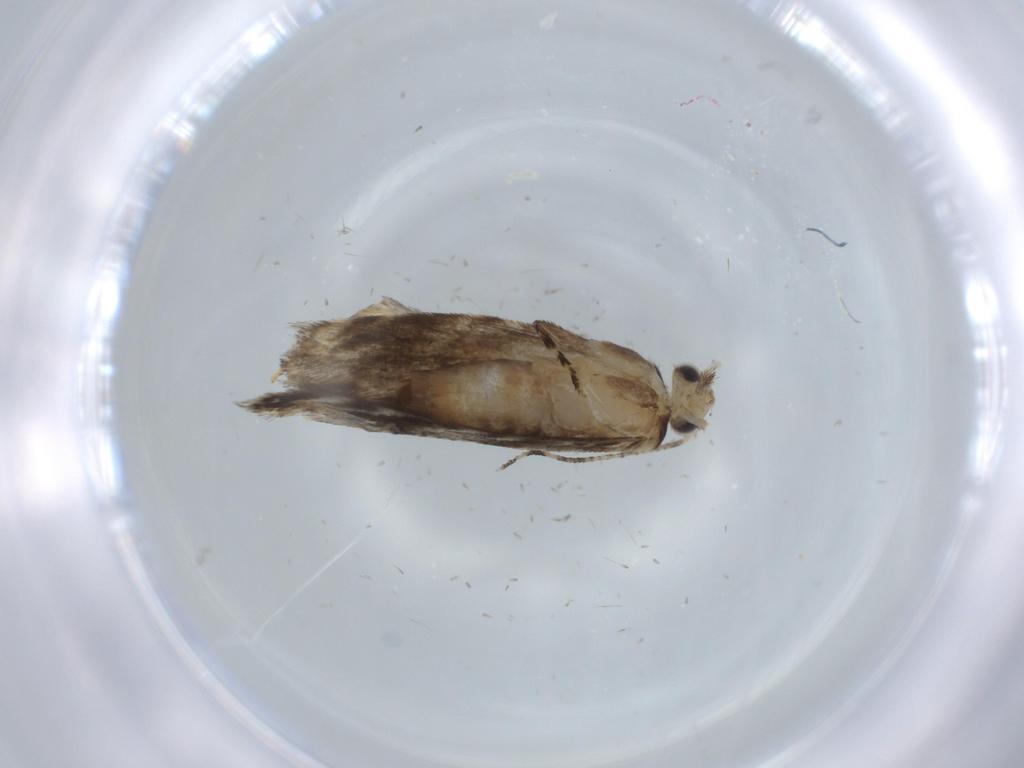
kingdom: Animalia
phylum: Arthropoda
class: Insecta
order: Lepidoptera
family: Tineidae
